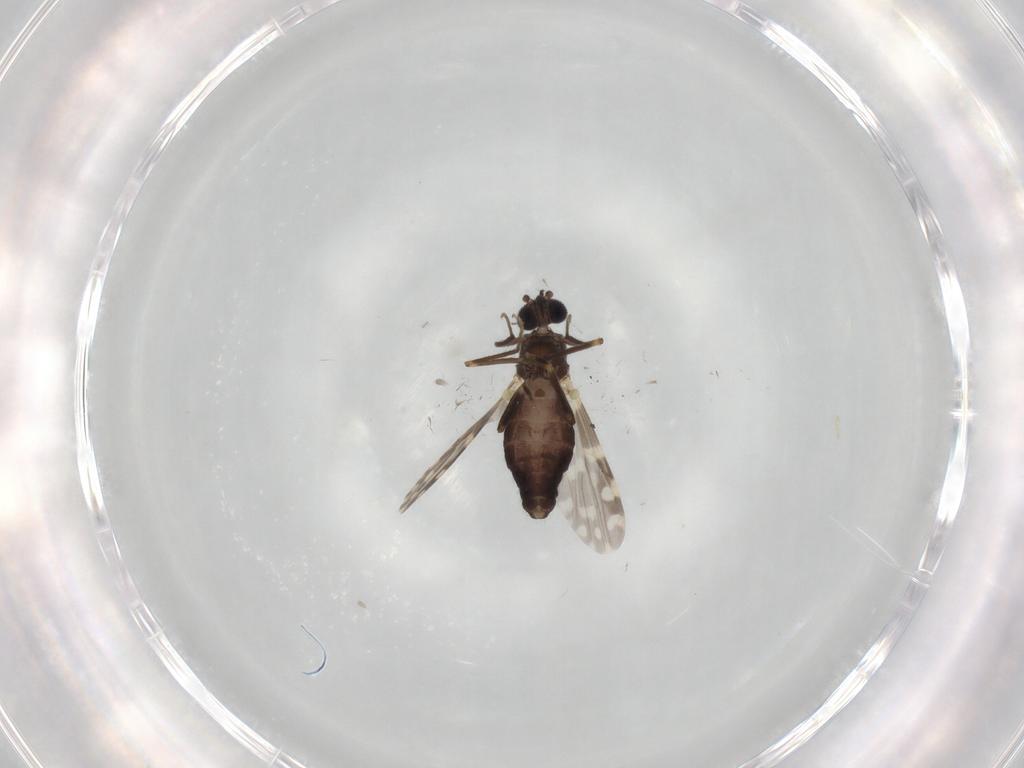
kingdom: Animalia
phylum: Arthropoda
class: Insecta
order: Diptera
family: Ceratopogonidae
